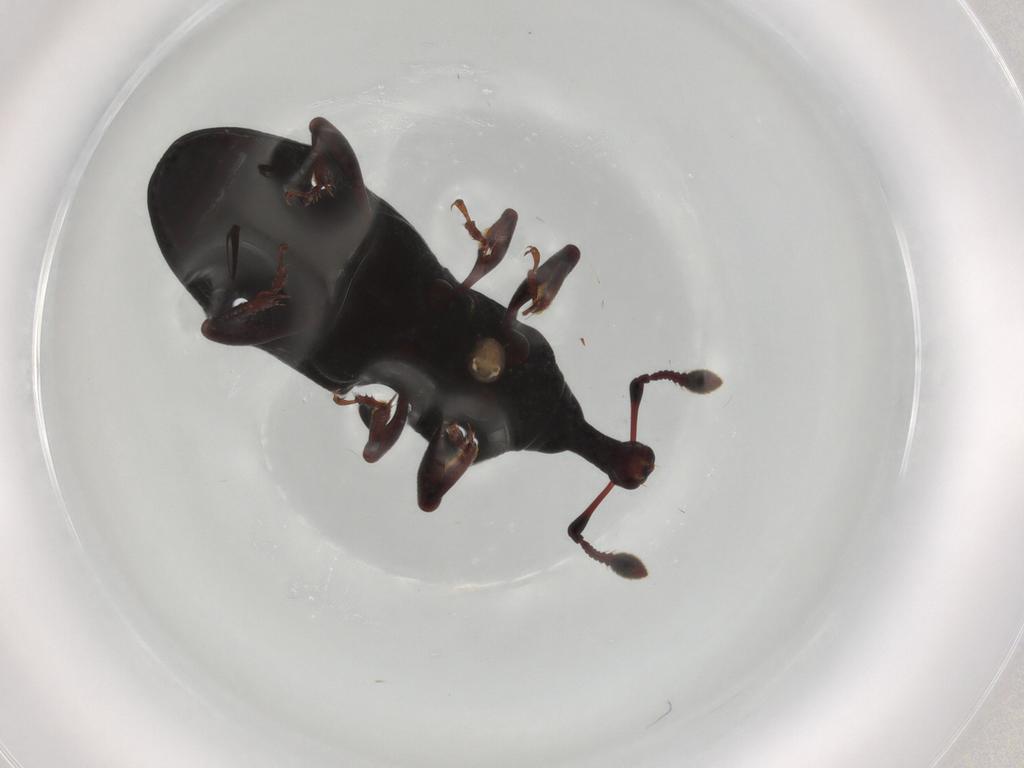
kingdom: Animalia
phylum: Arthropoda
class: Insecta
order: Coleoptera
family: Curculionidae
